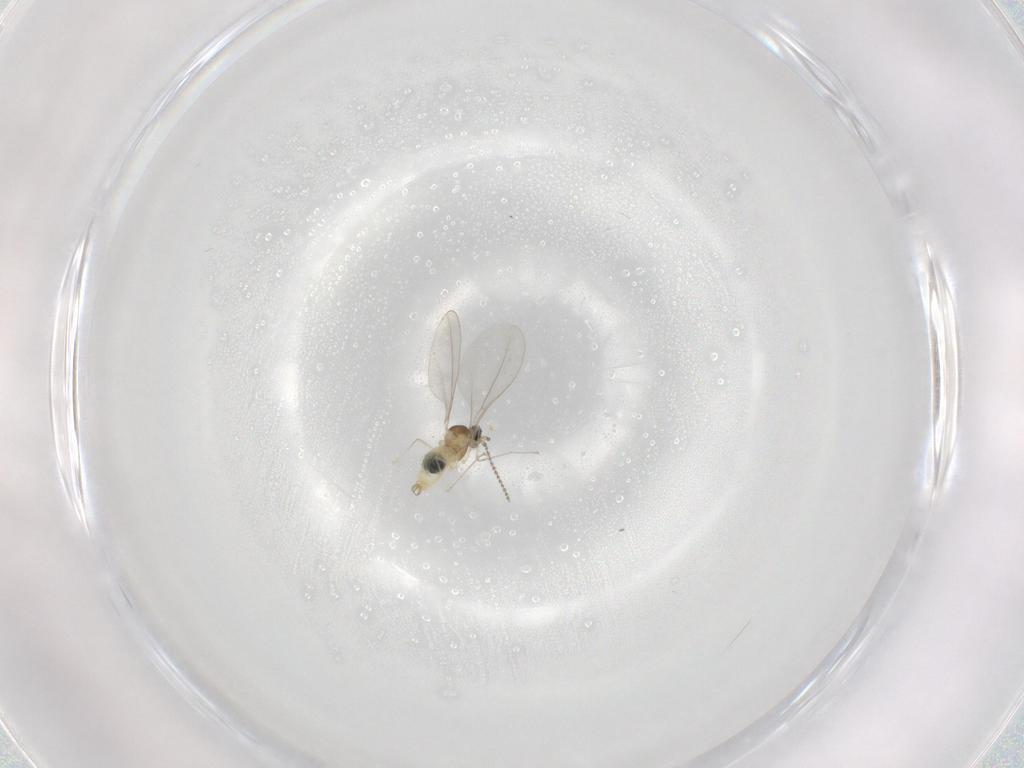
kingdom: Animalia
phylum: Arthropoda
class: Insecta
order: Diptera
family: Cecidomyiidae
